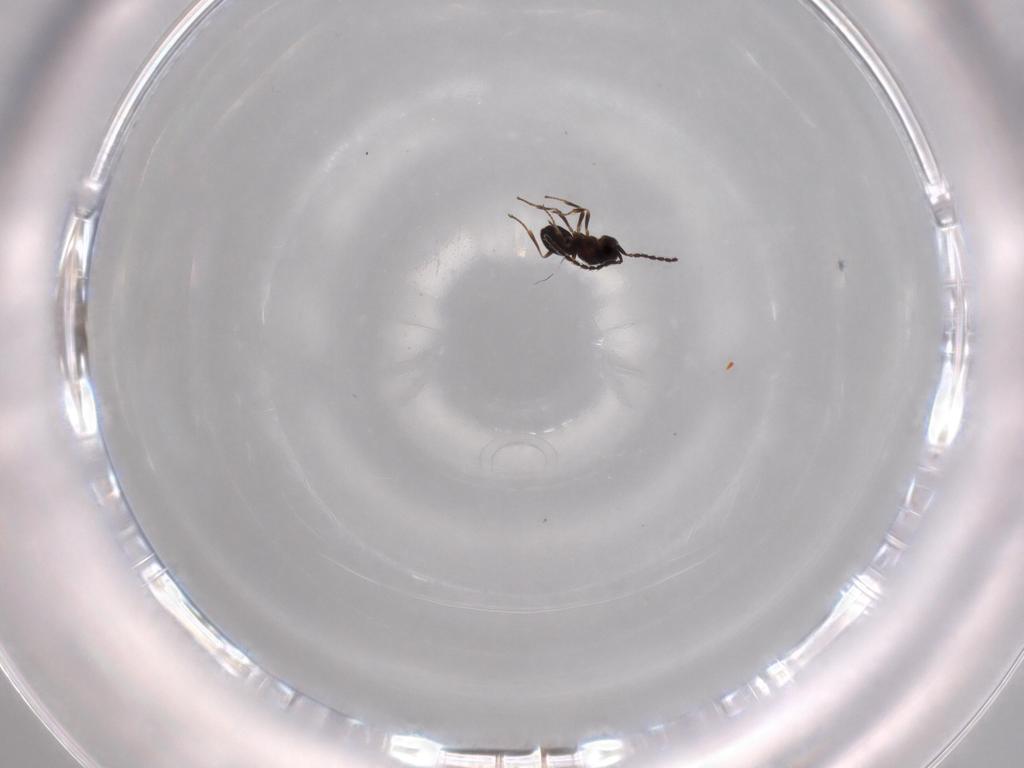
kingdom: Animalia
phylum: Arthropoda
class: Insecta
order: Hymenoptera
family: Scelionidae
